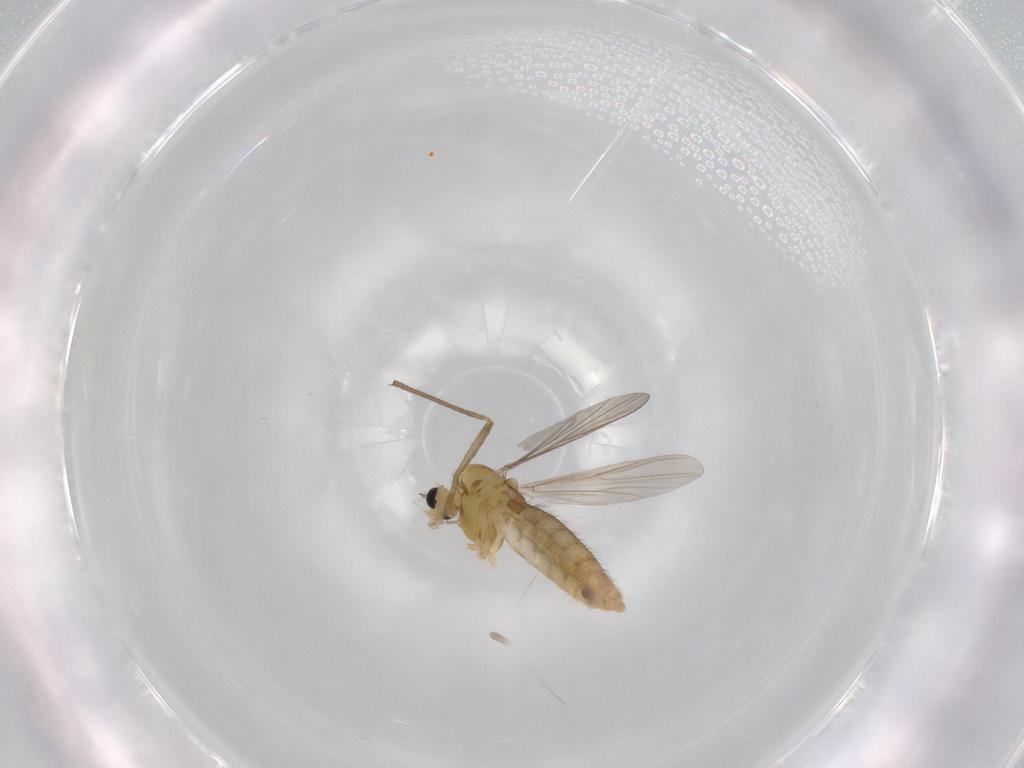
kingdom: Animalia
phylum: Arthropoda
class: Insecta
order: Diptera
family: Chironomidae
